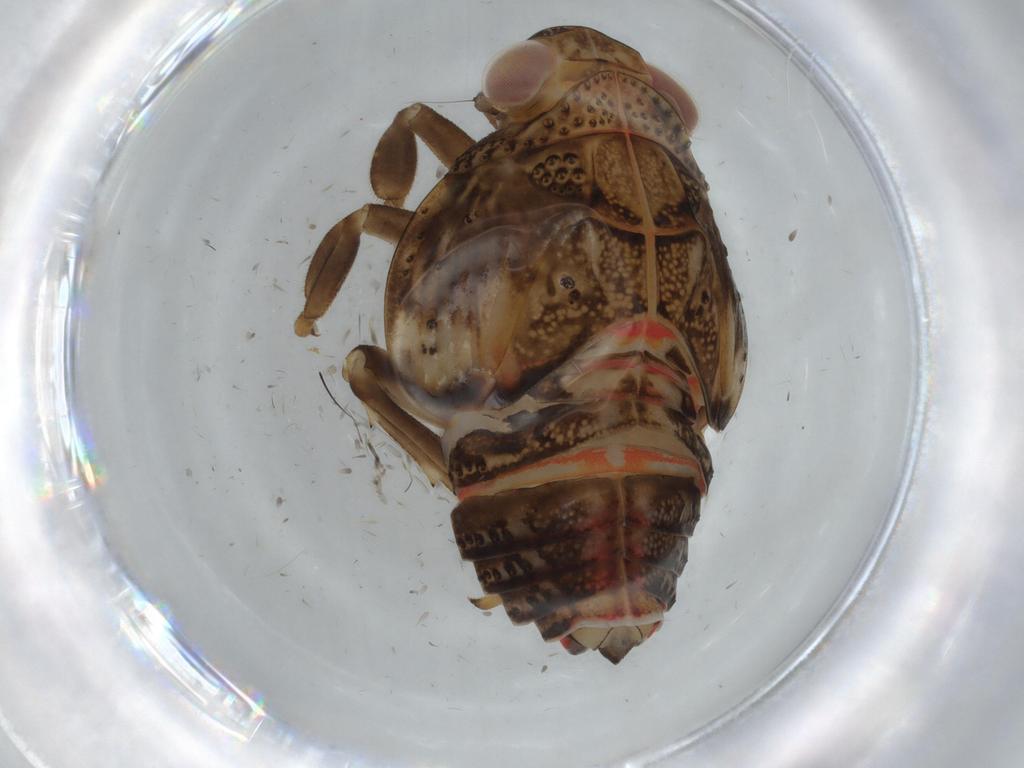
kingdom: Animalia
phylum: Arthropoda
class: Insecta
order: Hemiptera
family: Issidae
